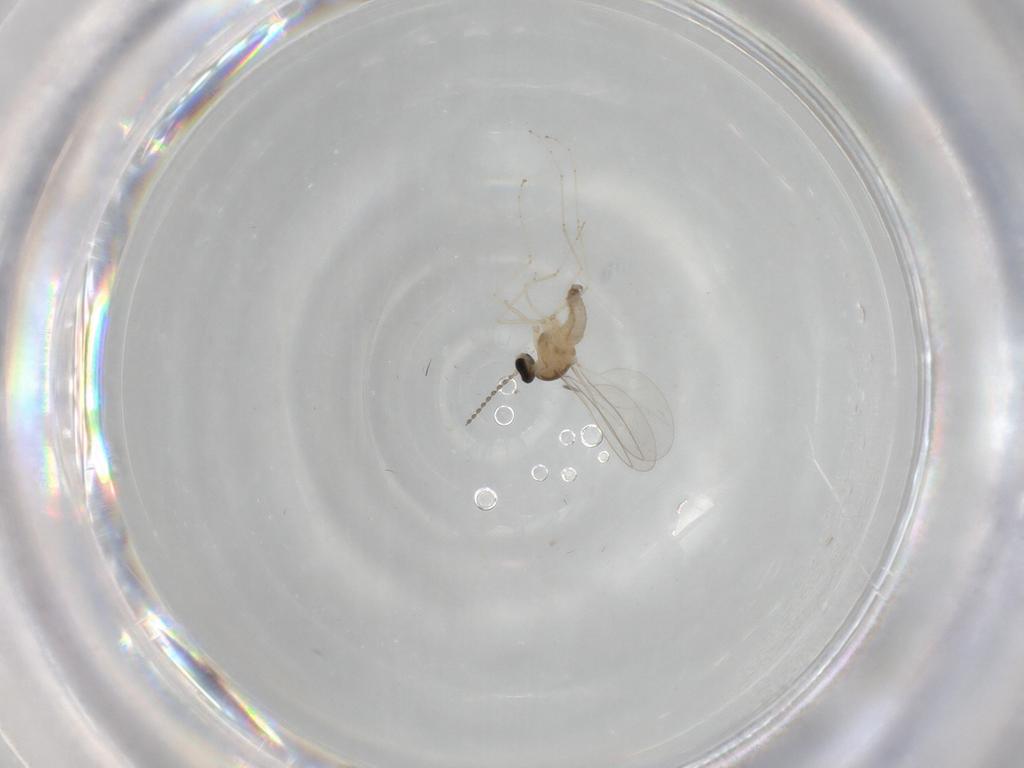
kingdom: Animalia
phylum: Arthropoda
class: Insecta
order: Diptera
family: Cecidomyiidae
